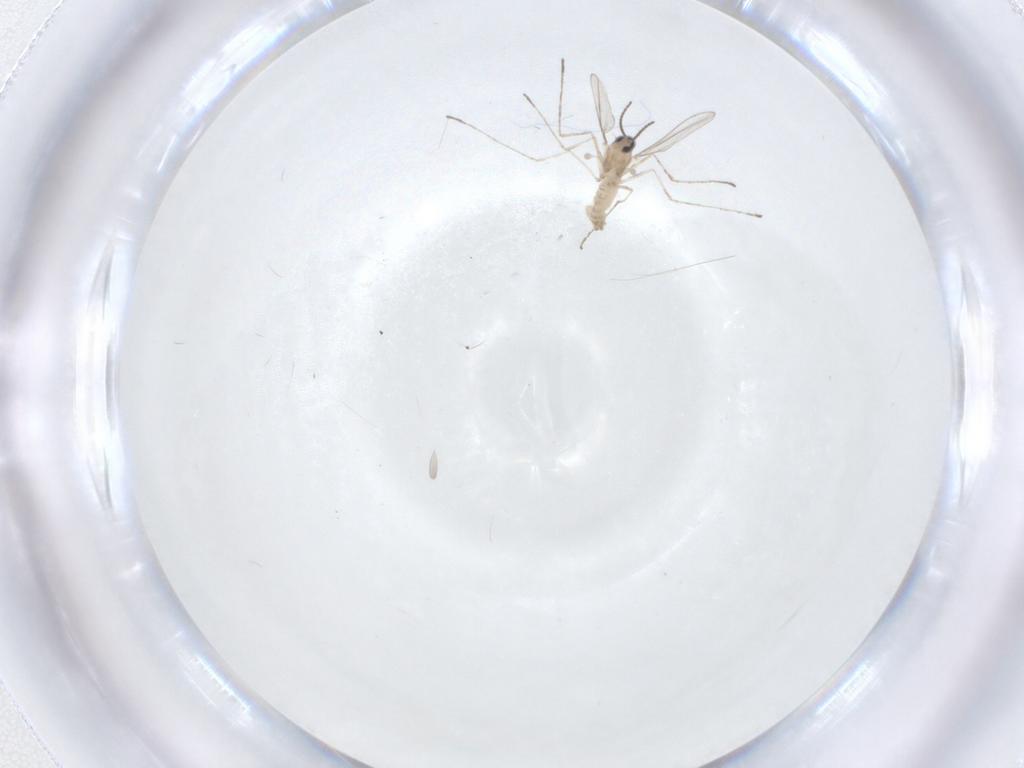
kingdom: Animalia
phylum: Arthropoda
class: Insecta
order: Diptera
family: Cecidomyiidae
